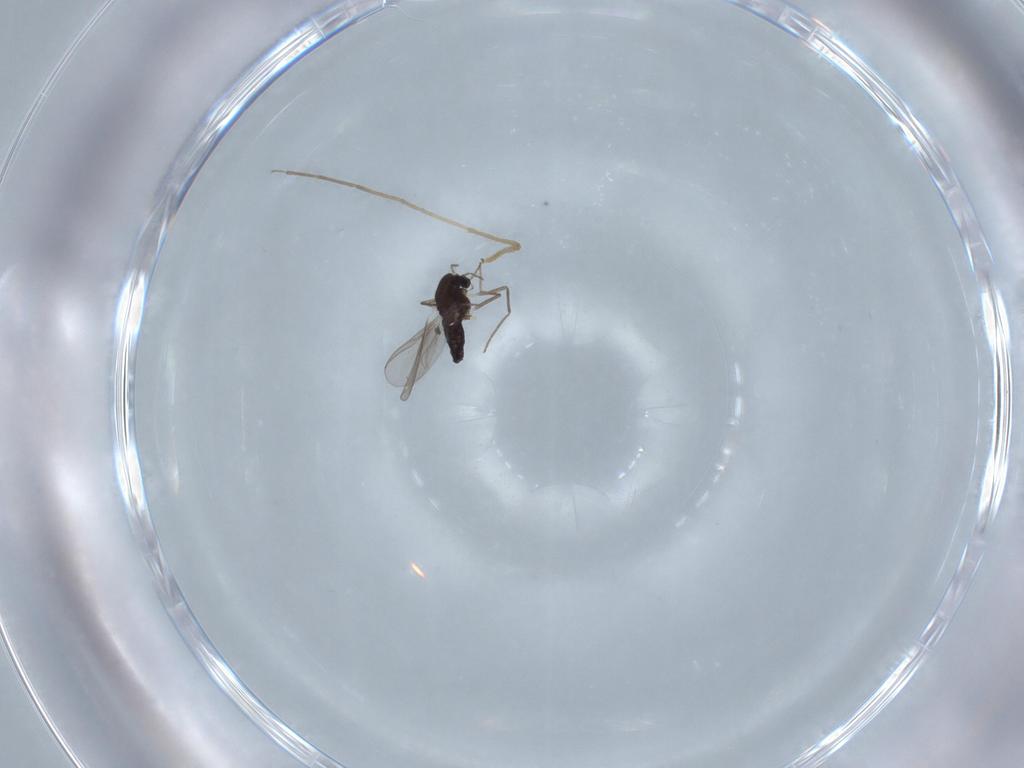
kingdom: Animalia
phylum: Arthropoda
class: Insecta
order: Diptera
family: Chironomidae
